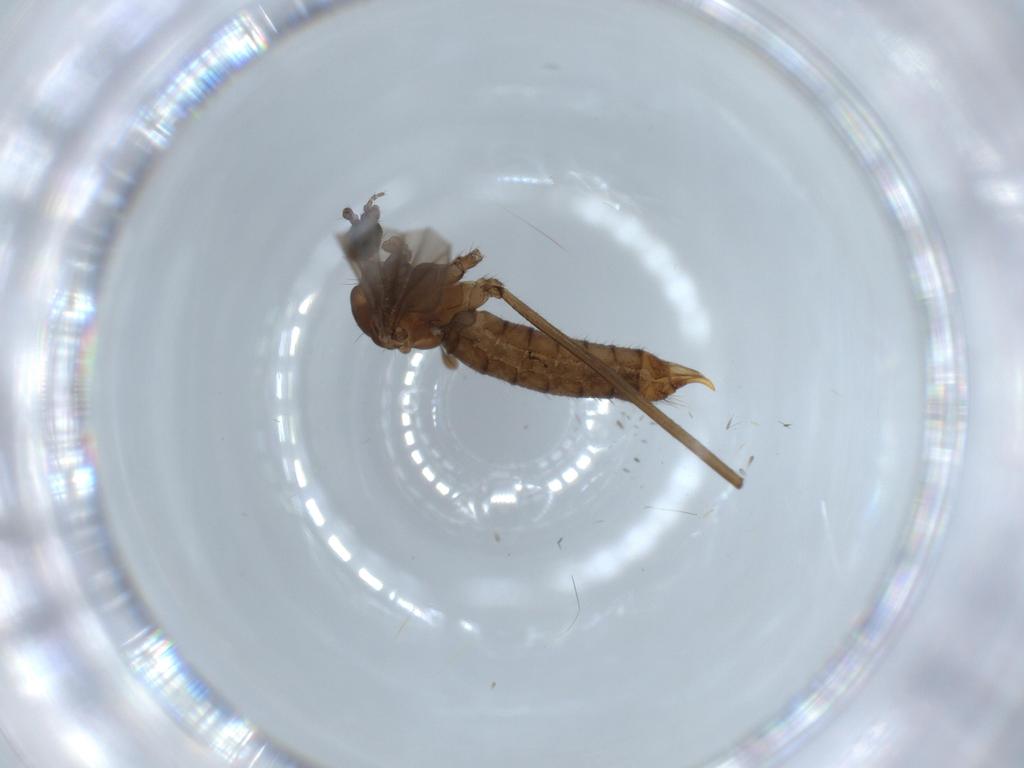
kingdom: Animalia
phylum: Arthropoda
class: Insecta
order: Diptera
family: Limoniidae
